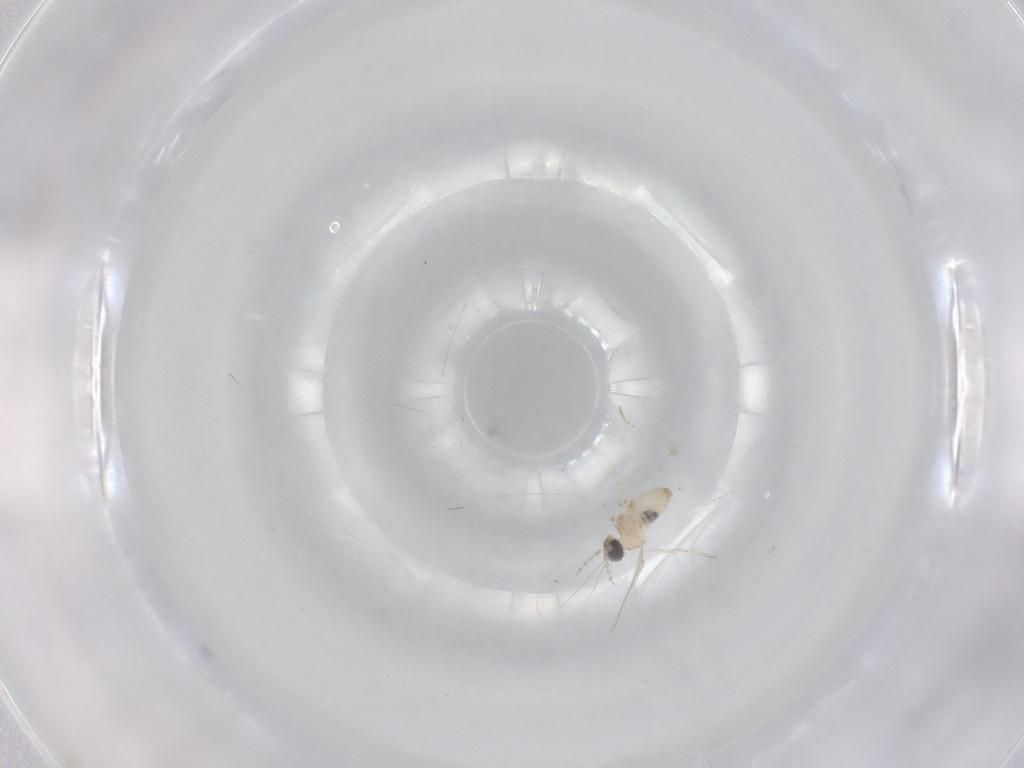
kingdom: Animalia
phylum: Arthropoda
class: Insecta
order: Diptera
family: Cecidomyiidae
